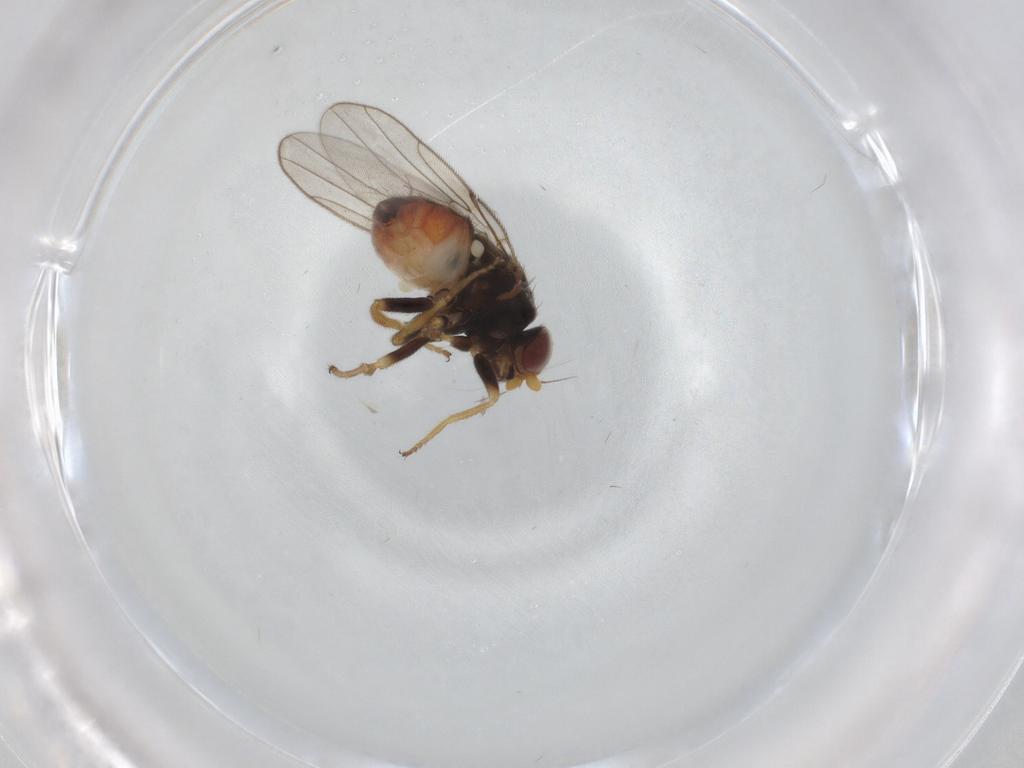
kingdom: Animalia
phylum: Arthropoda
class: Insecta
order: Diptera
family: Chloropidae
